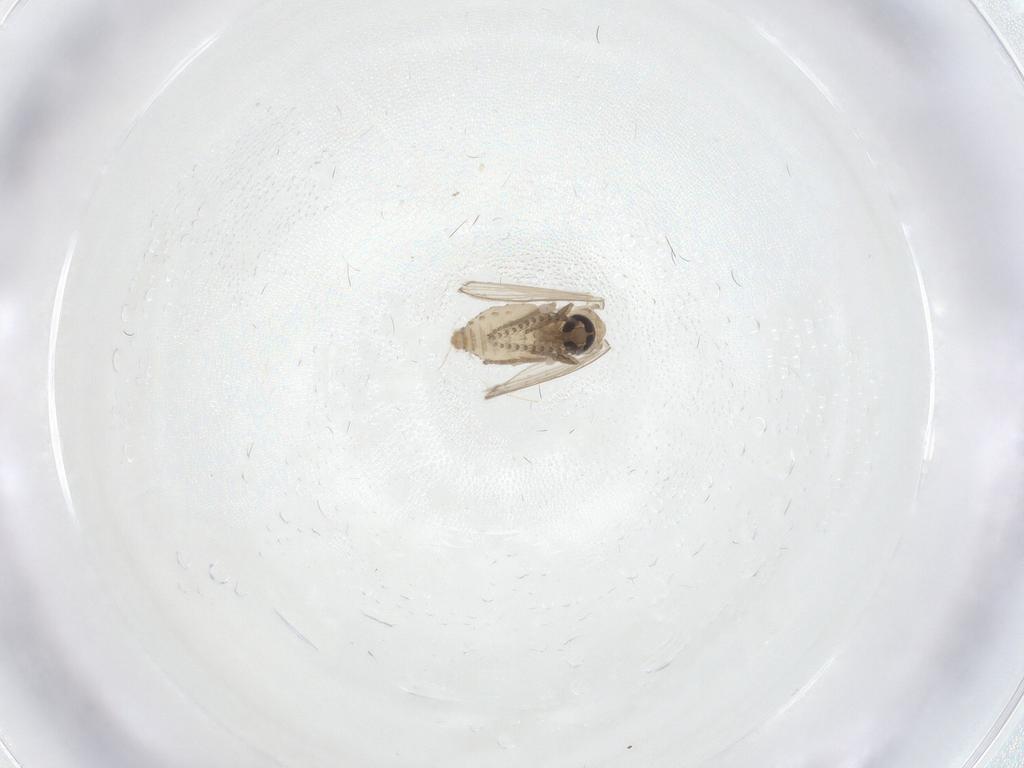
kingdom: Animalia
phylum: Arthropoda
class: Insecta
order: Diptera
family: Psychodidae
